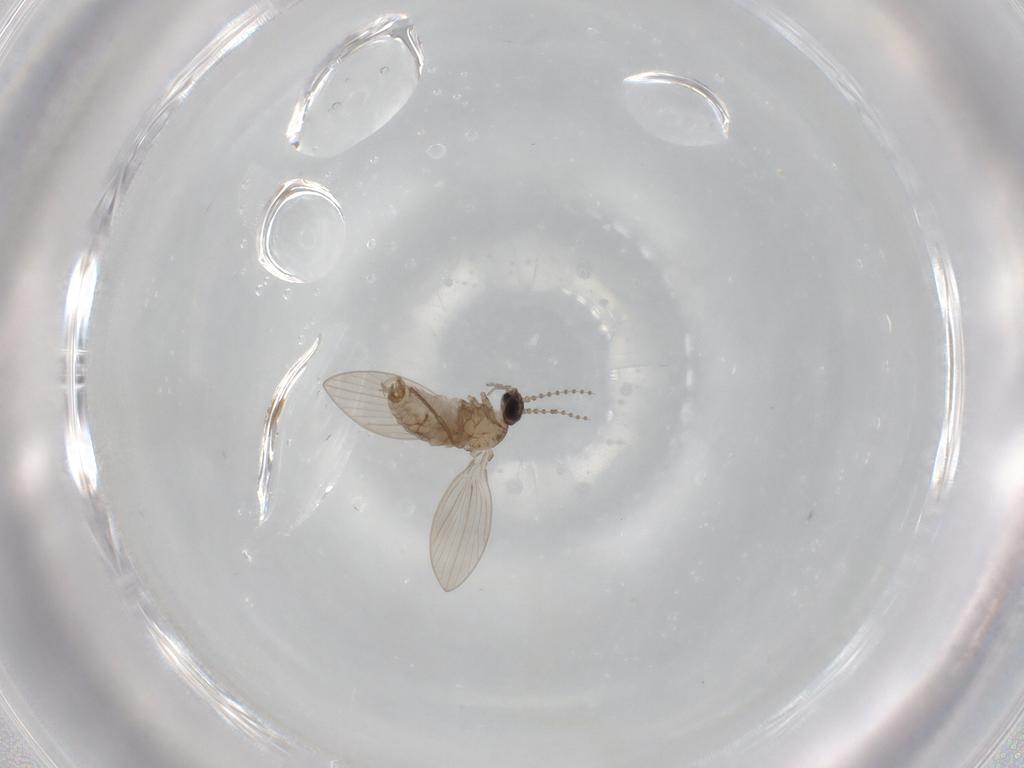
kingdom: Animalia
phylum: Arthropoda
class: Insecta
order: Diptera
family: Psychodidae
